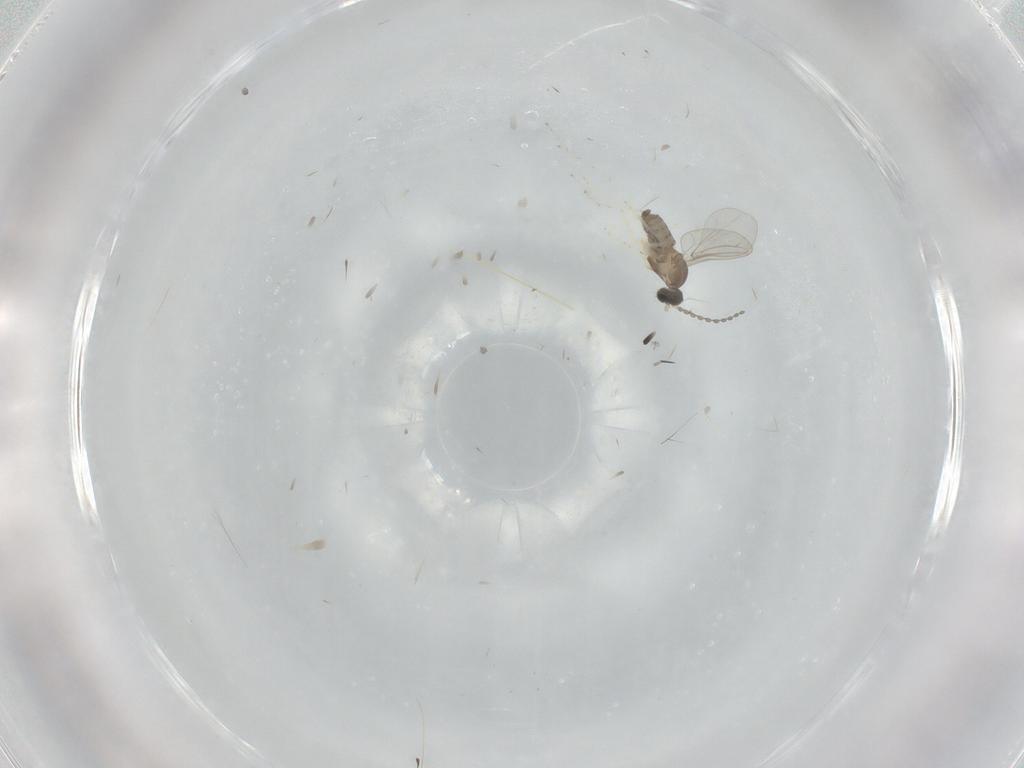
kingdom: Animalia
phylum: Arthropoda
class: Insecta
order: Diptera
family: Cecidomyiidae
